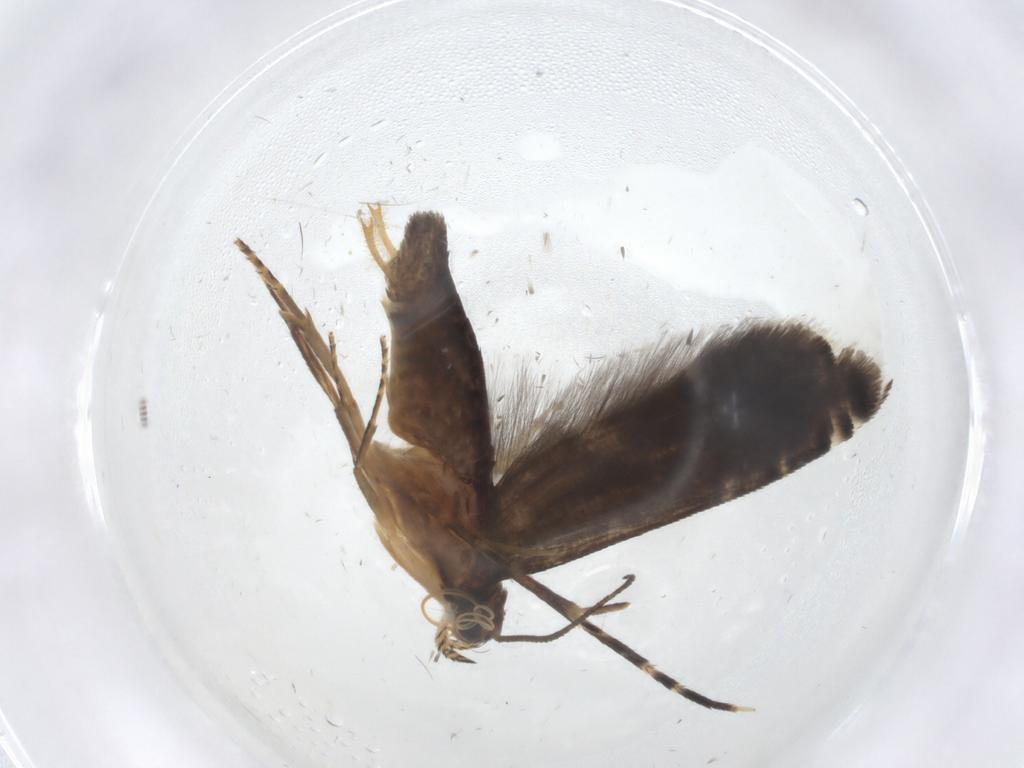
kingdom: Animalia
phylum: Arthropoda
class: Insecta
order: Lepidoptera
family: Glyphipterigidae
